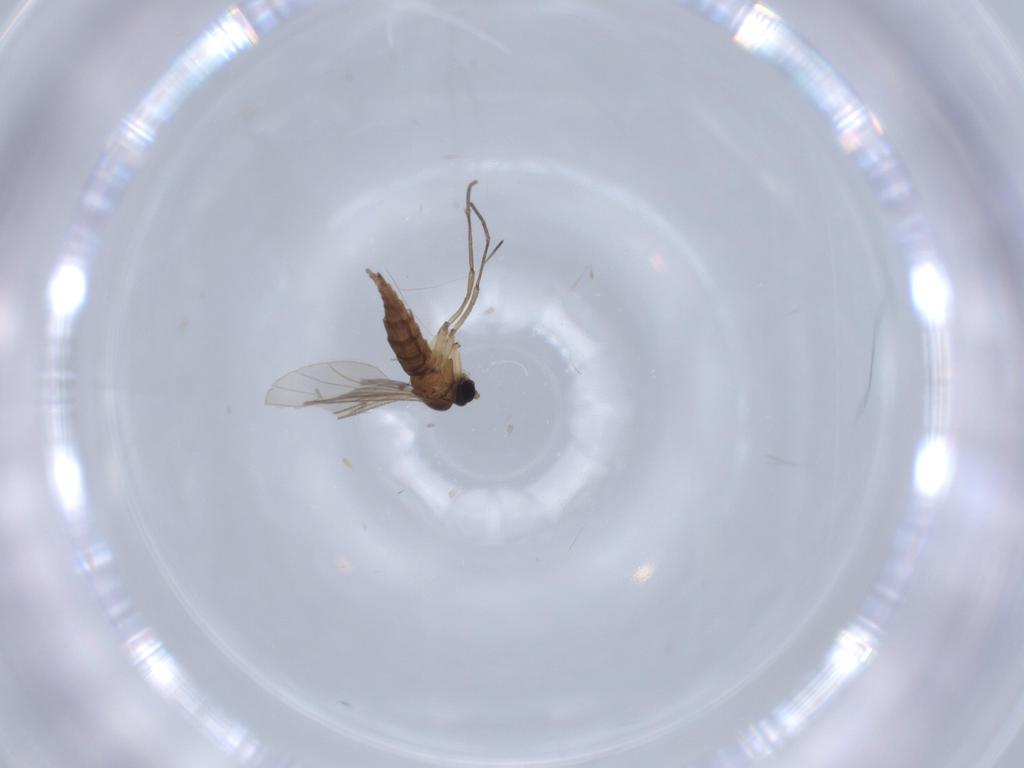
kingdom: Animalia
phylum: Arthropoda
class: Insecta
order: Diptera
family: Sciaridae
